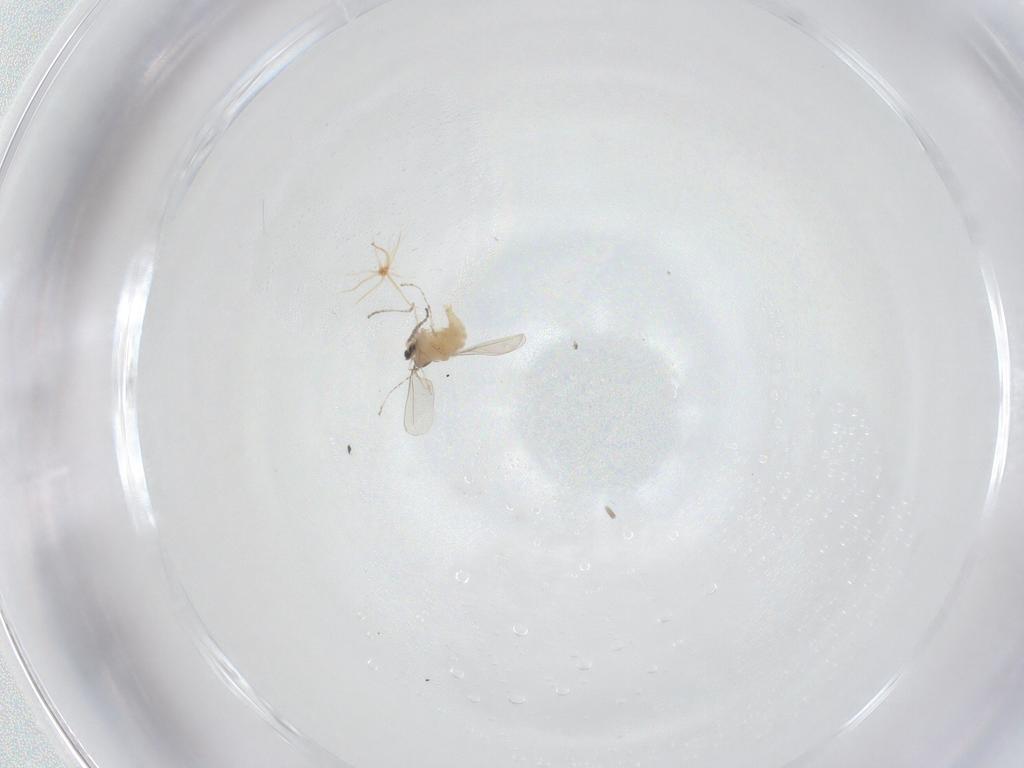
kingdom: Animalia
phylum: Arthropoda
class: Insecta
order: Diptera
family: Cecidomyiidae
